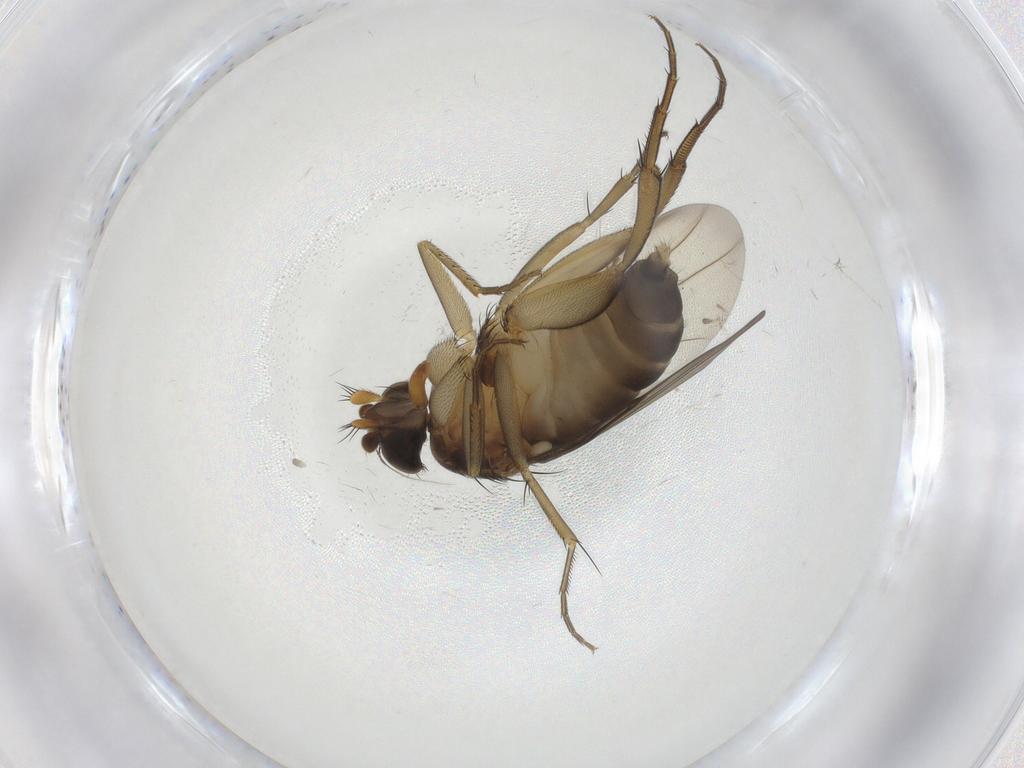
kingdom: Animalia
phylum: Arthropoda
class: Insecta
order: Diptera
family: Phoridae
